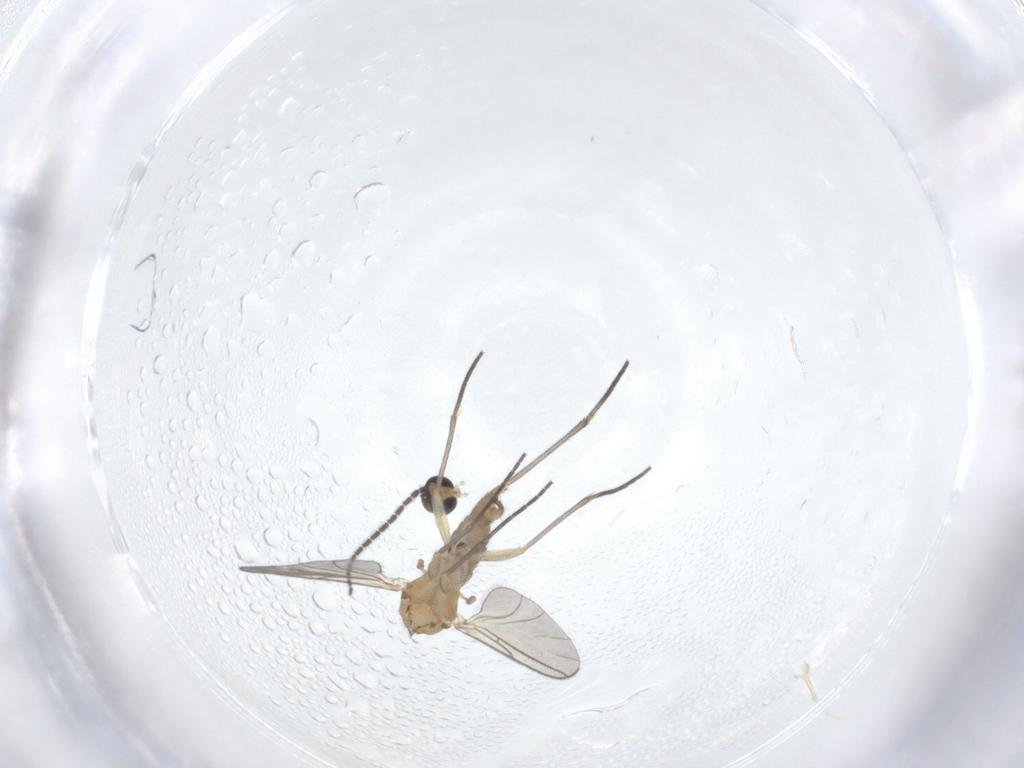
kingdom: Animalia
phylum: Arthropoda
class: Insecta
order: Diptera
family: Sciaridae
